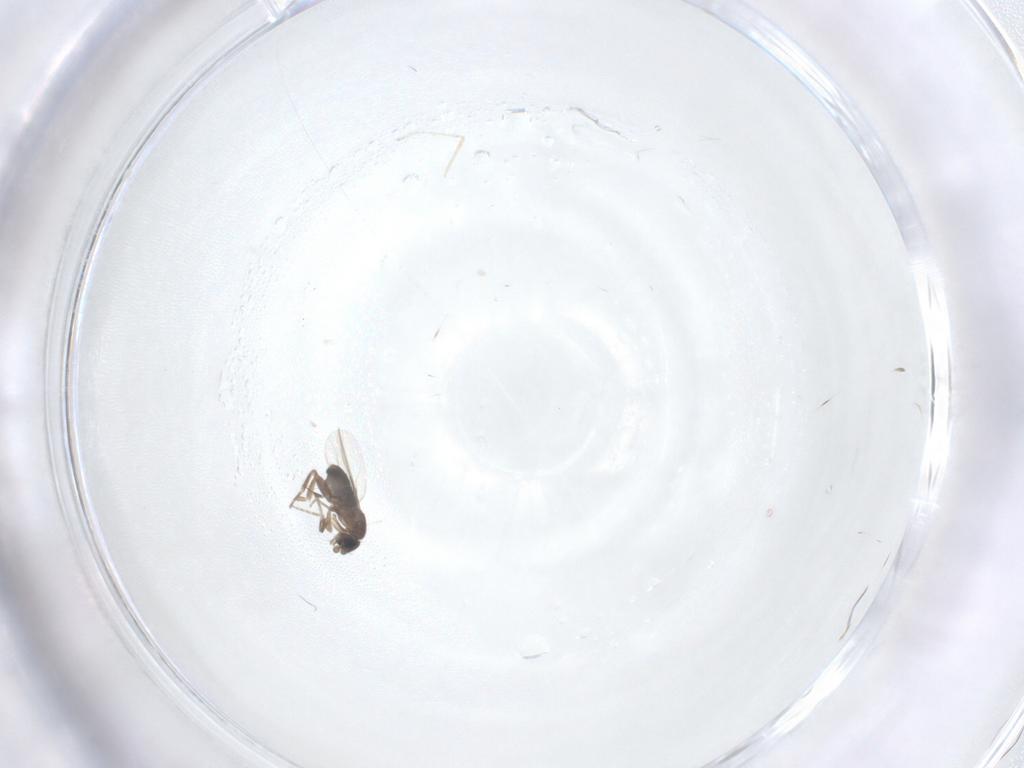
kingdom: Animalia
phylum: Arthropoda
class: Insecta
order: Diptera
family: Phoridae
